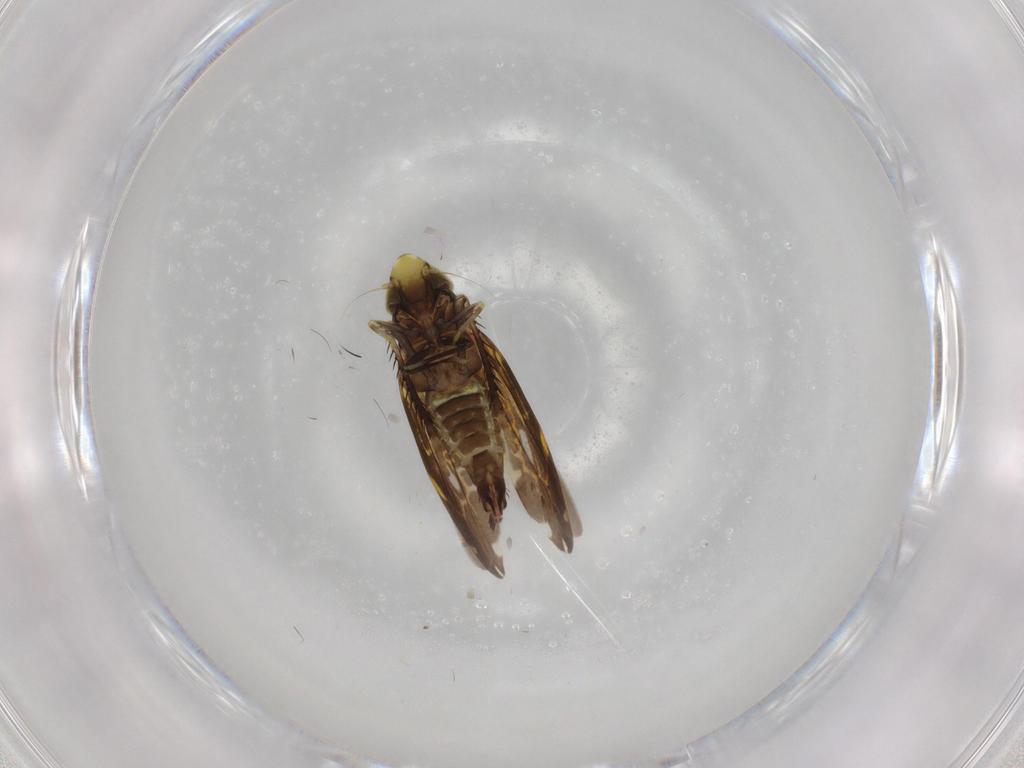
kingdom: Animalia
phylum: Arthropoda
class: Insecta
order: Hemiptera
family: Cicadellidae
